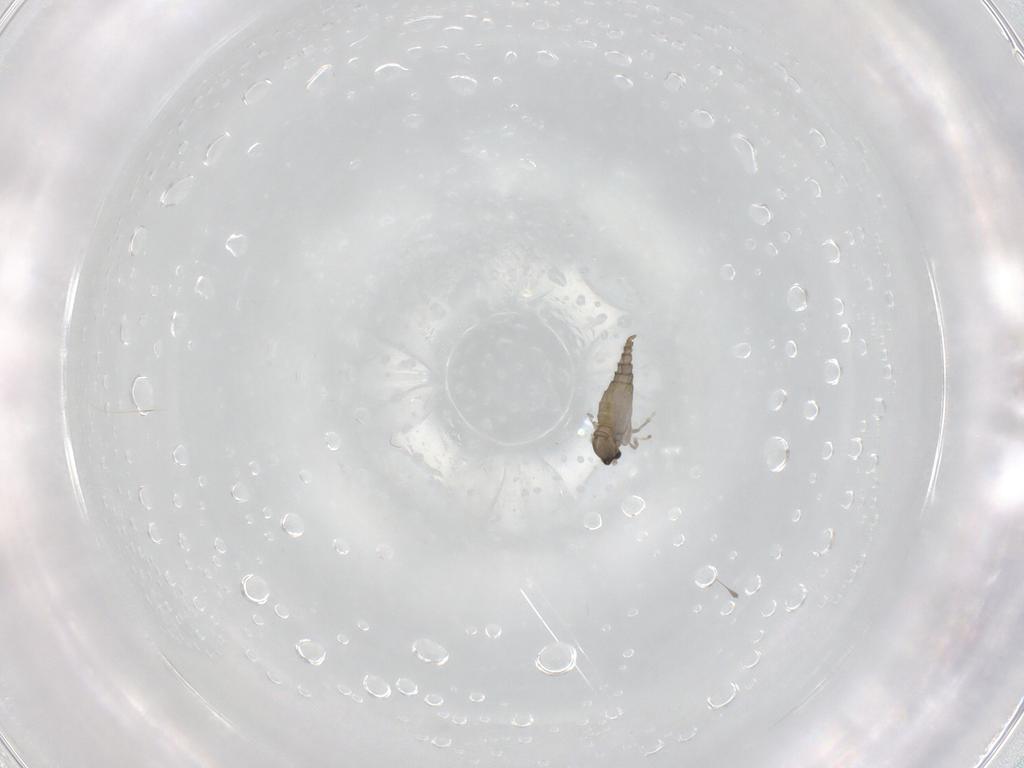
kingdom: Animalia
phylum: Arthropoda
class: Insecta
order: Diptera
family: Cecidomyiidae
